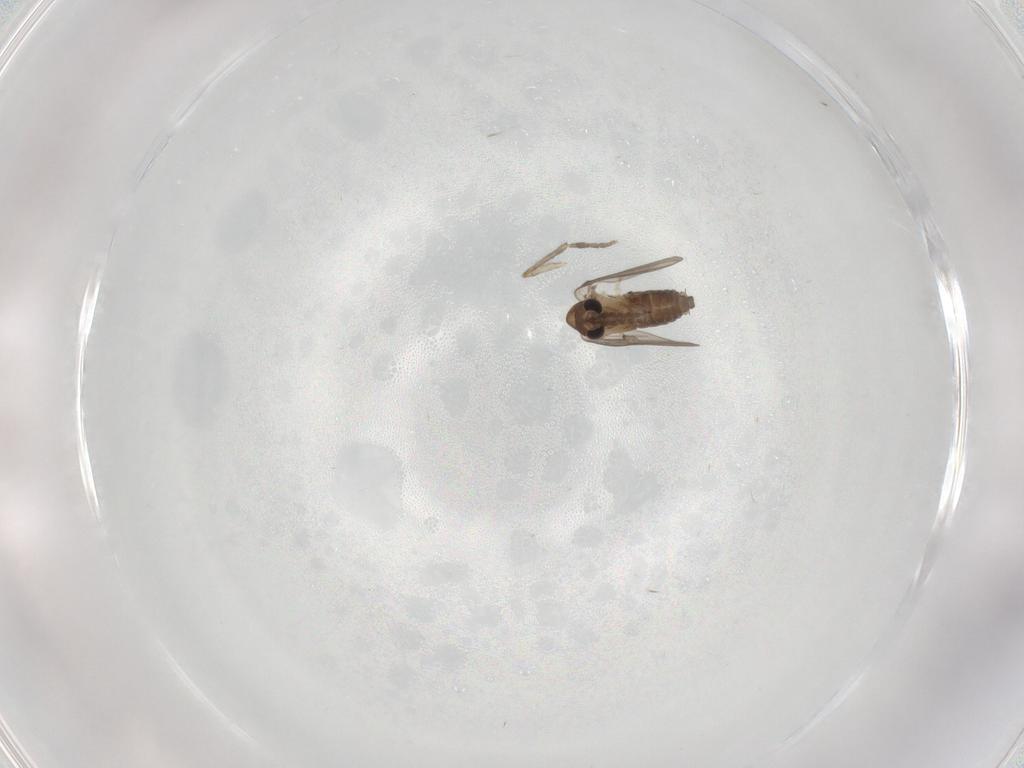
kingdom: Animalia
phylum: Arthropoda
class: Insecta
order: Diptera
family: Psychodidae
